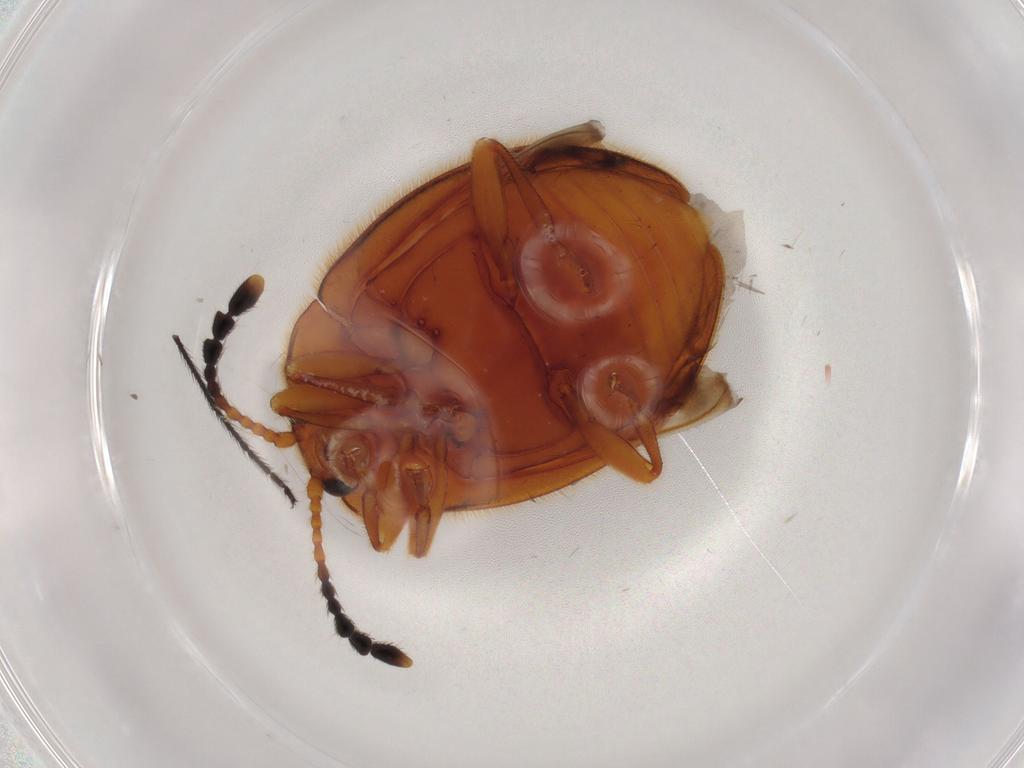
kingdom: Animalia
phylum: Arthropoda
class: Insecta
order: Coleoptera
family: Endomychidae
